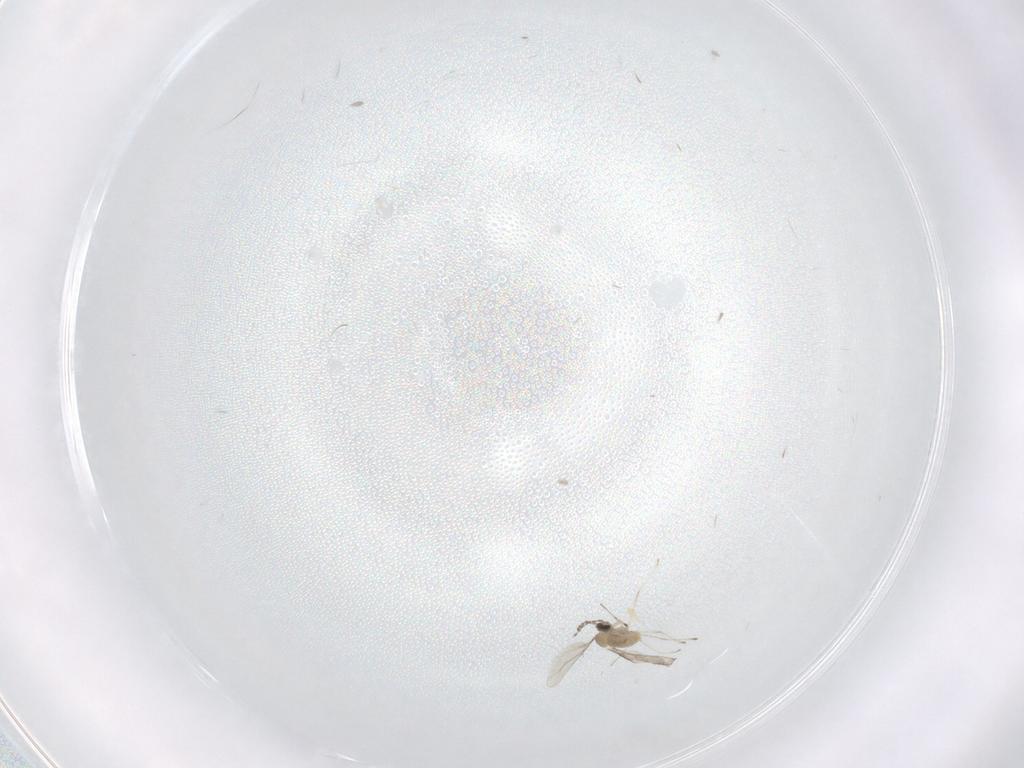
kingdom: Animalia
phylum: Arthropoda
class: Insecta
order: Diptera
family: Cecidomyiidae
